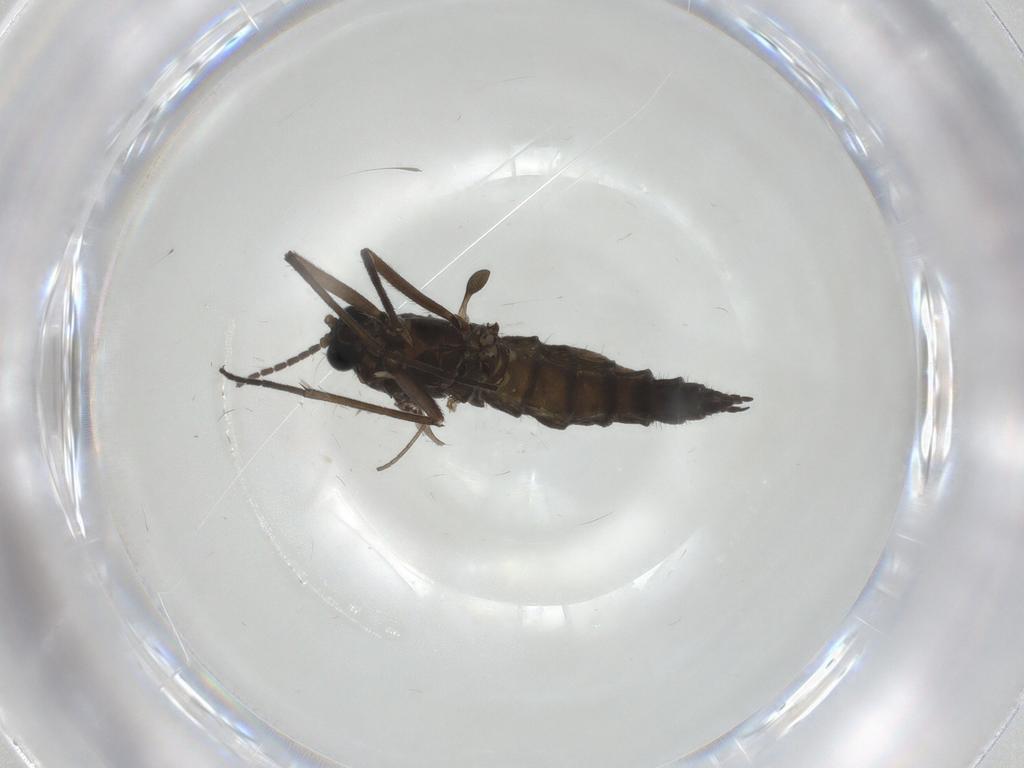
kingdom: Animalia
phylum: Arthropoda
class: Insecta
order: Diptera
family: Sciaridae
